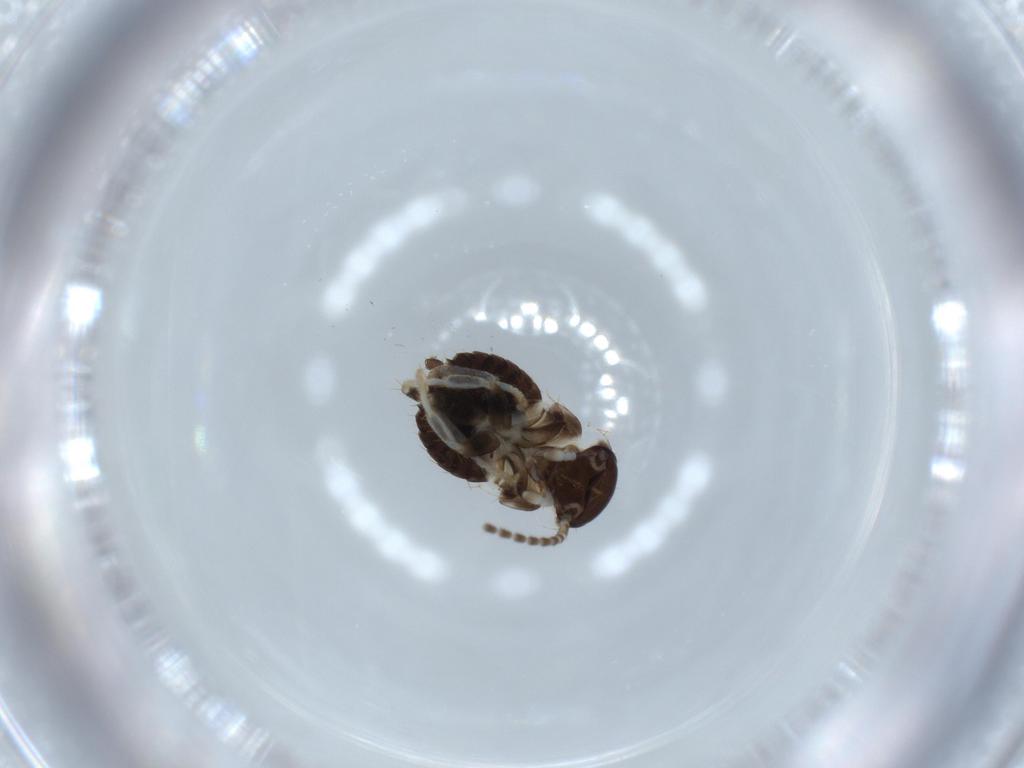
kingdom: Animalia
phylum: Arthropoda
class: Insecta
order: Blattodea
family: Ectobiidae
